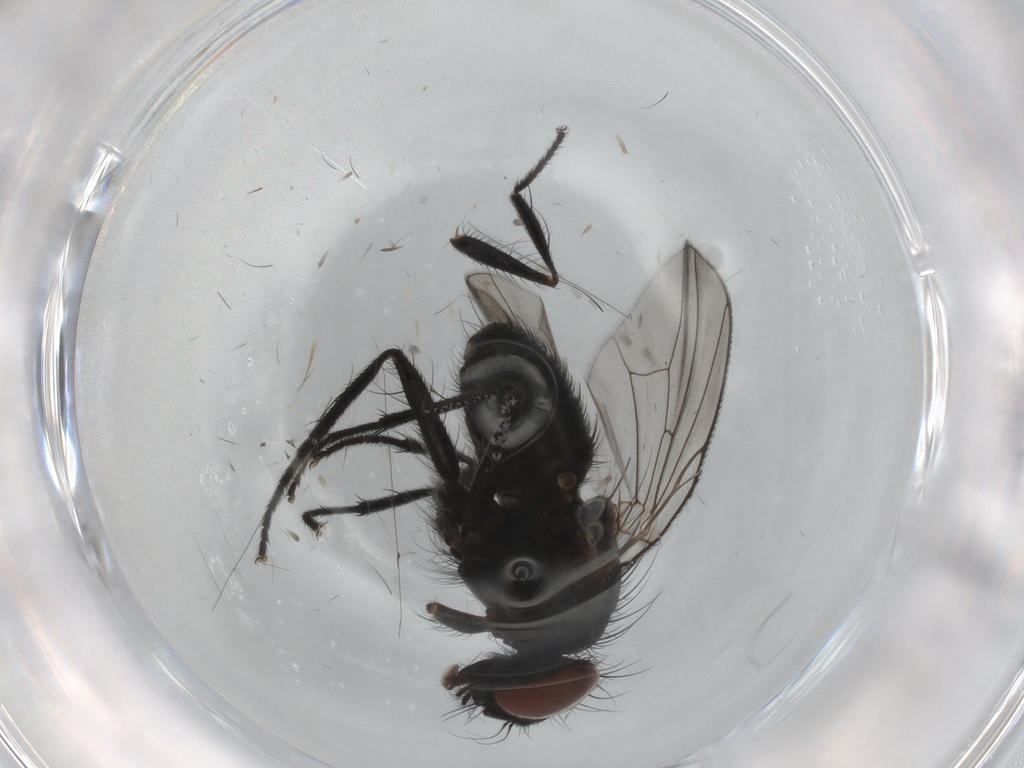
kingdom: Animalia
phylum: Arthropoda
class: Insecta
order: Diptera
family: Muscidae
